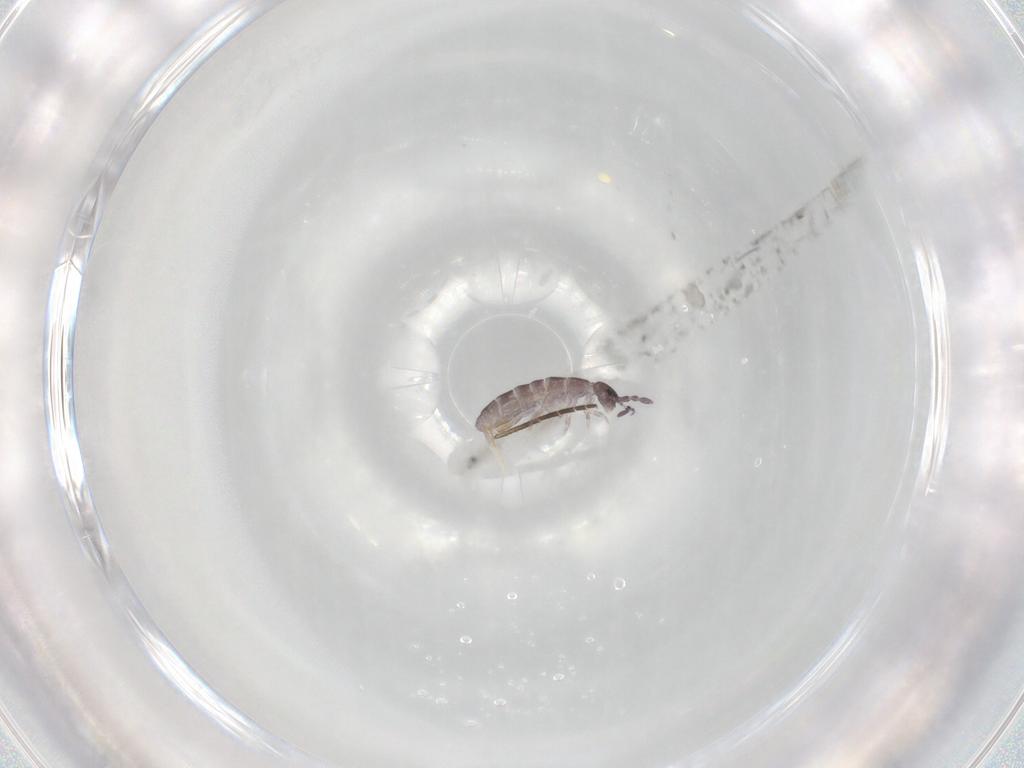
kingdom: Animalia
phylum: Arthropoda
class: Collembola
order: Entomobryomorpha
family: Isotomidae
